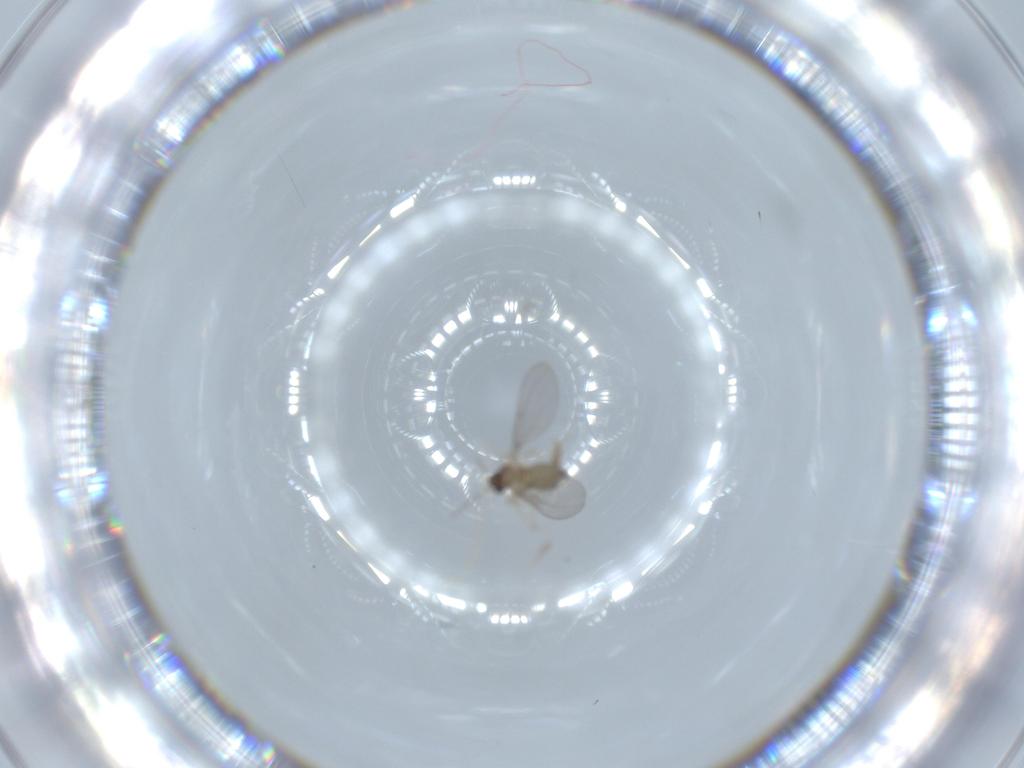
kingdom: Animalia
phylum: Arthropoda
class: Insecta
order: Diptera
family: Cecidomyiidae
